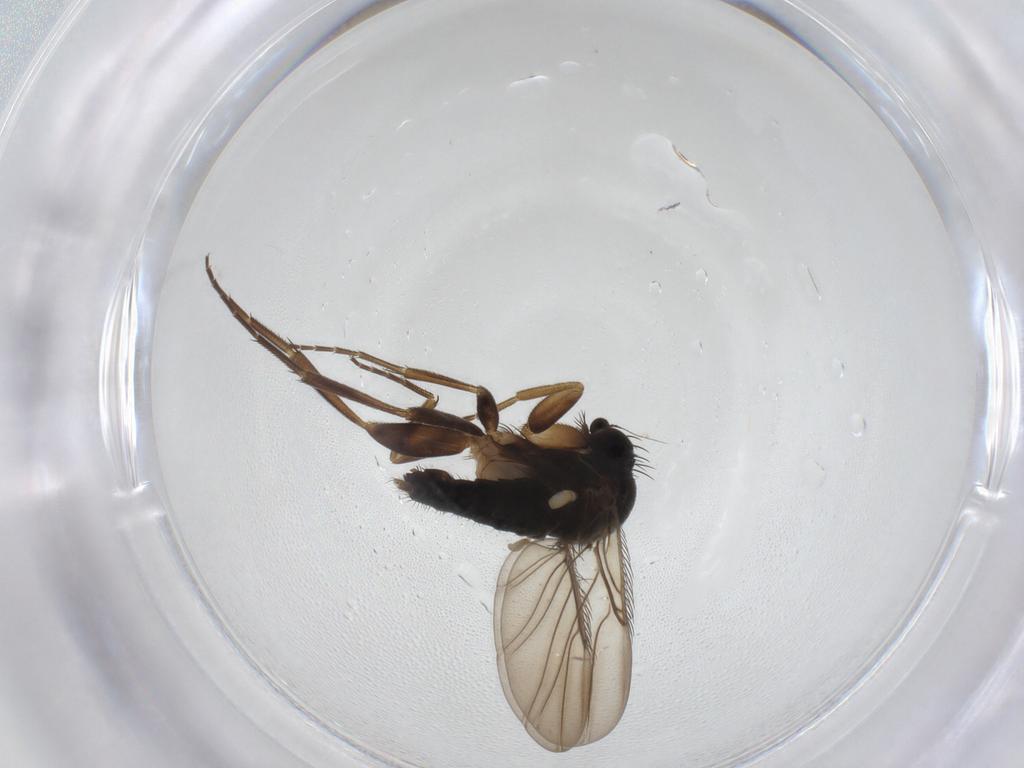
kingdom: Animalia
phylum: Arthropoda
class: Insecta
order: Diptera
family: Phoridae
